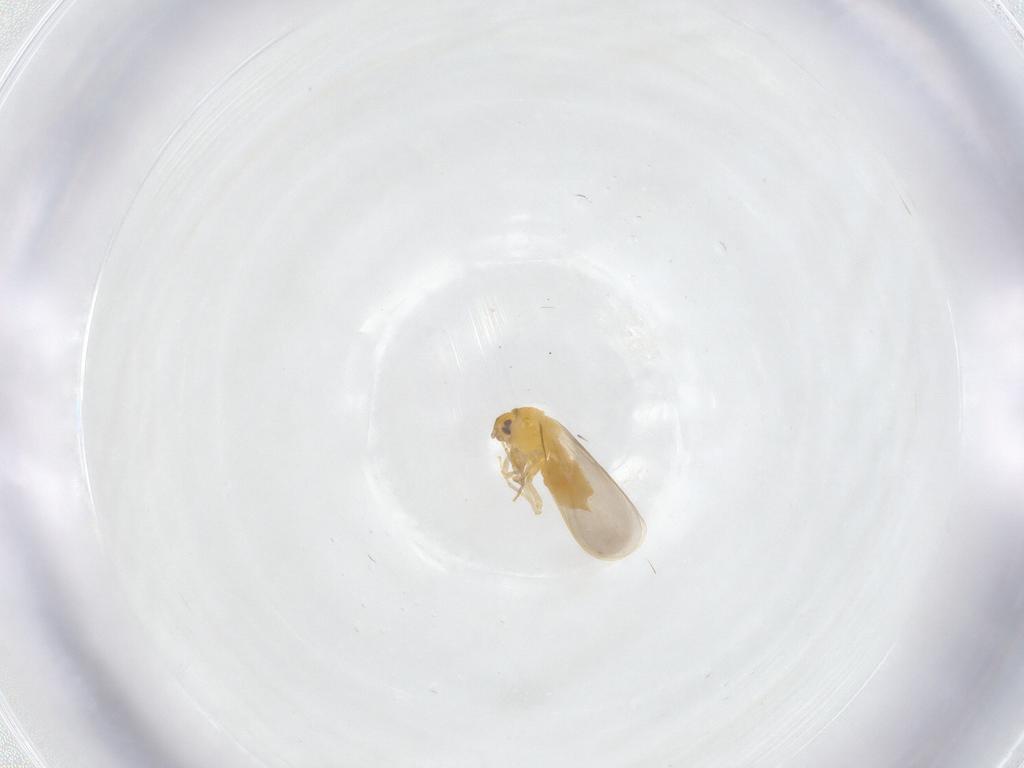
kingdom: Animalia
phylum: Arthropoda
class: Insecta
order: Hemiptera
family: Aleyrodidae
